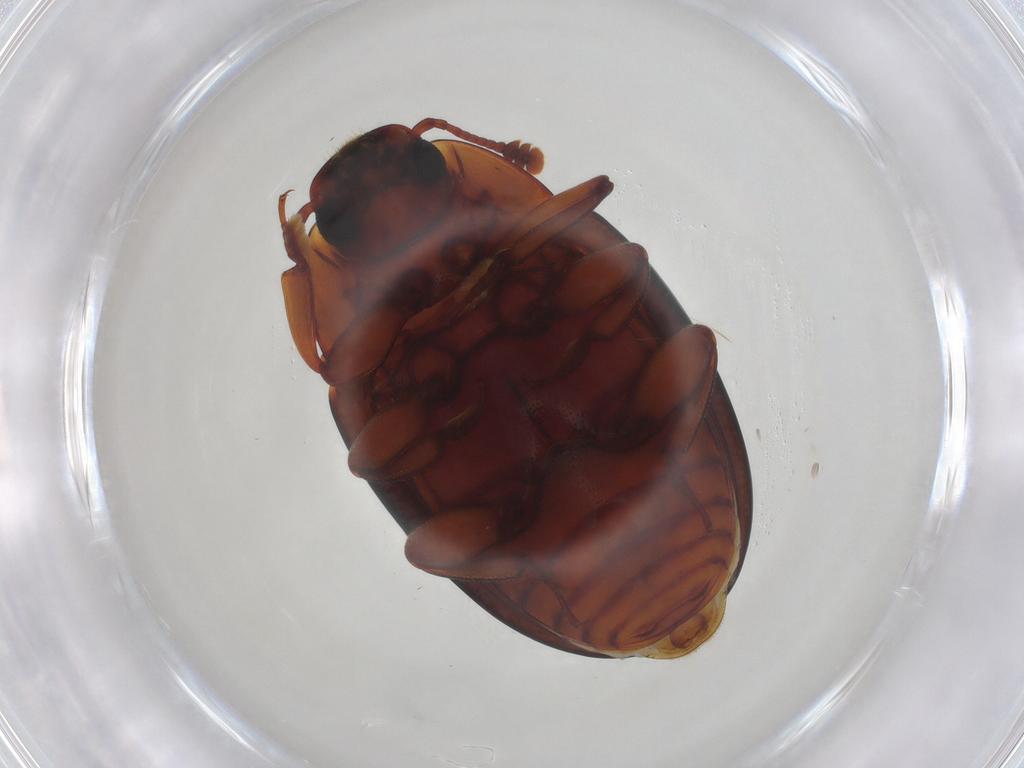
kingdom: Animalia
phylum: Arthropoda
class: Insecta
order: Coleoptera
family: Zopheridae
